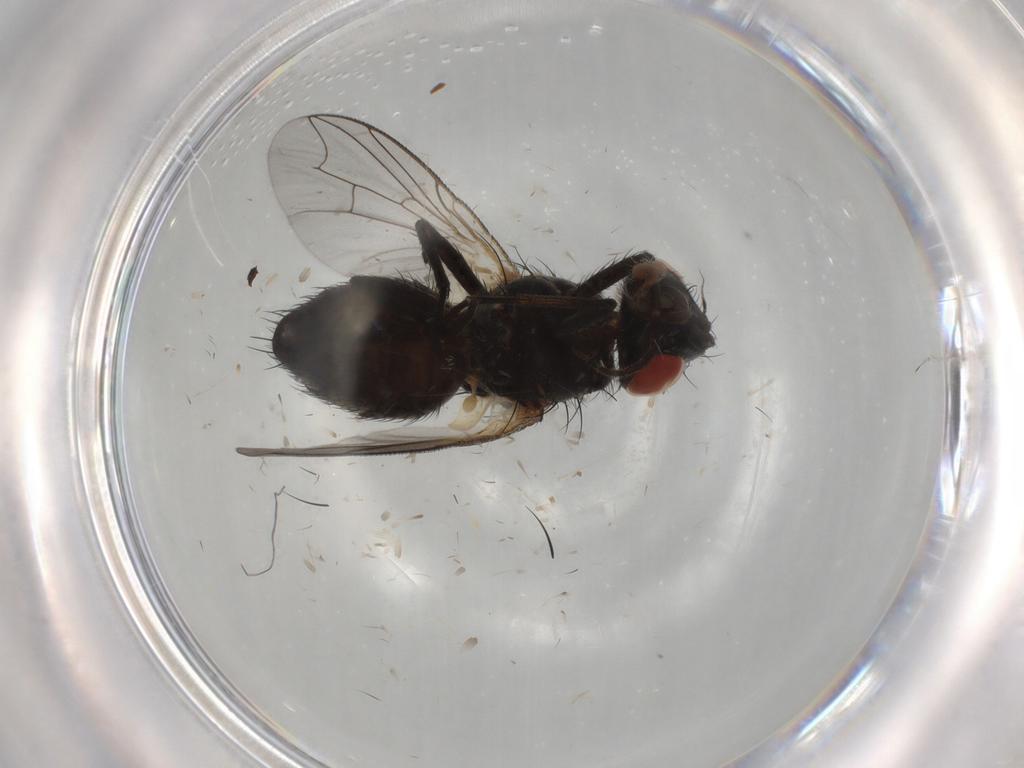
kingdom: Animalia
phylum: Arthropoda
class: Insecta
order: Diptera
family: Sarcophagidae
